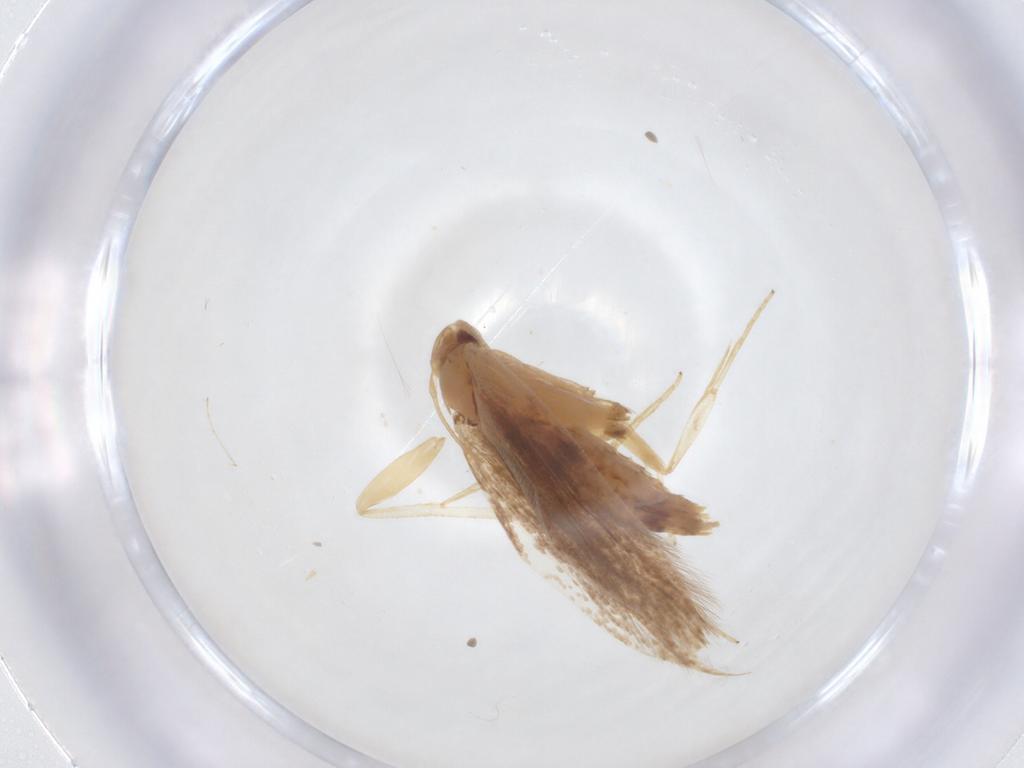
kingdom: Animalia
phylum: Arthropoda
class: Insecta
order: Lepidoptera
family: Cosmopterigidae
